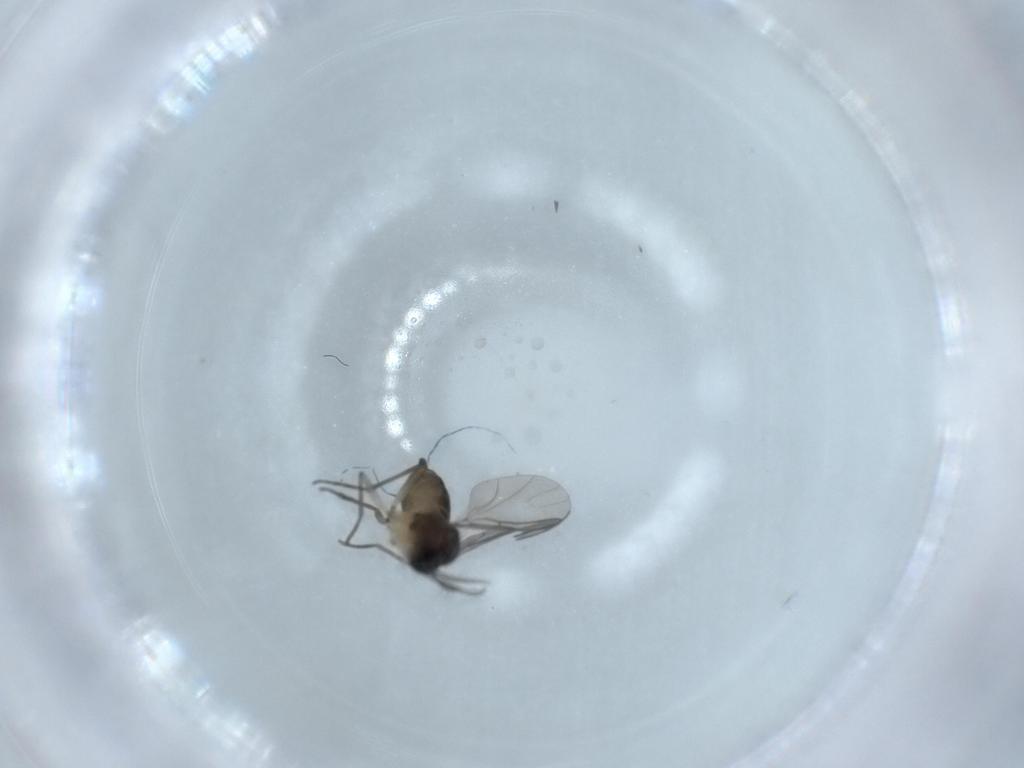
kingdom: Animalia
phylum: Arthropoda
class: Insecta
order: Diptera
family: Sciaridae
